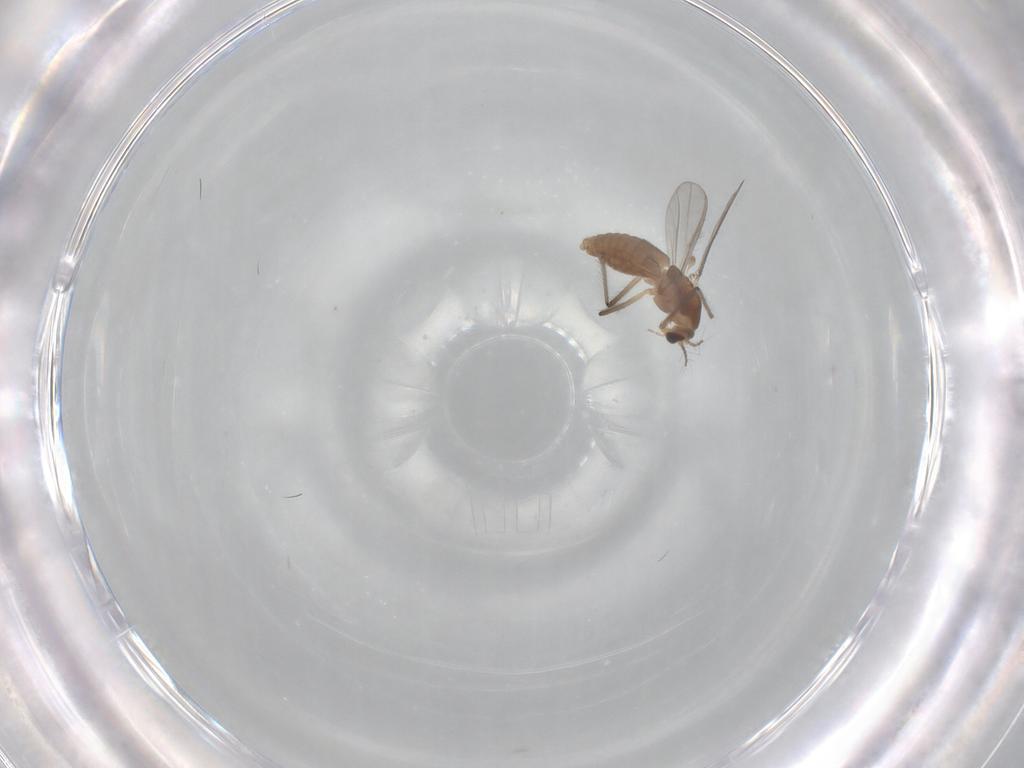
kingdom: Animalia
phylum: Arthropoda
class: Insecta
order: Diptera
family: Chironomidae
